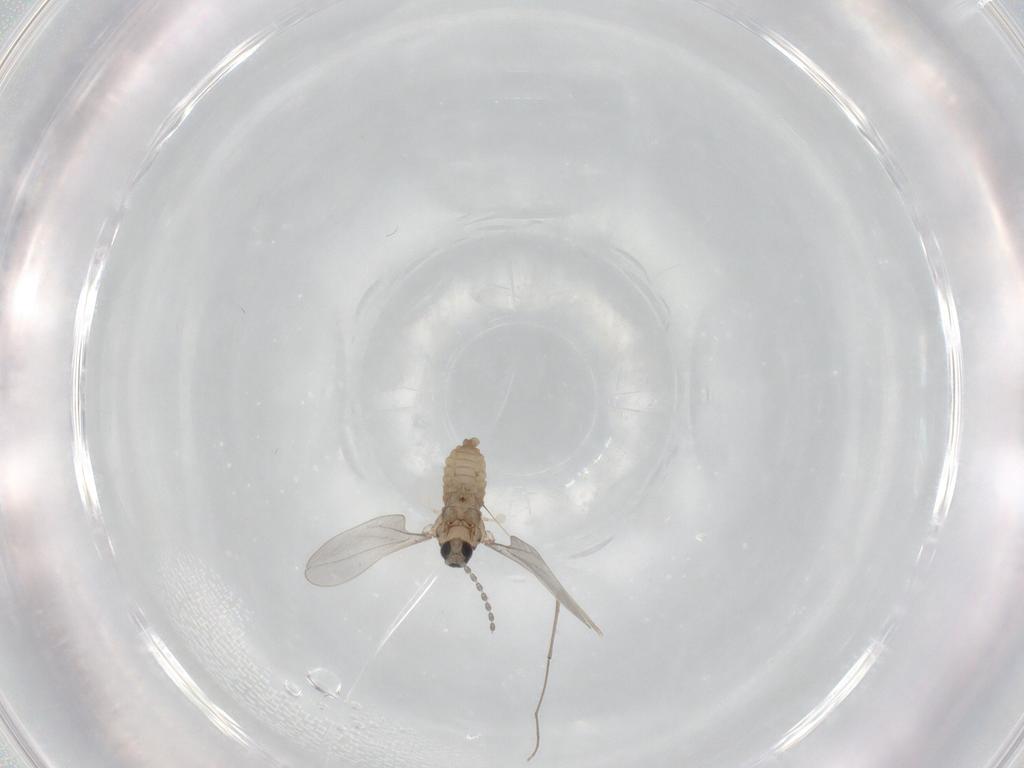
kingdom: Animalia
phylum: Arthropoda
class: Insecta
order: Diptera
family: Cecidomyiidae
